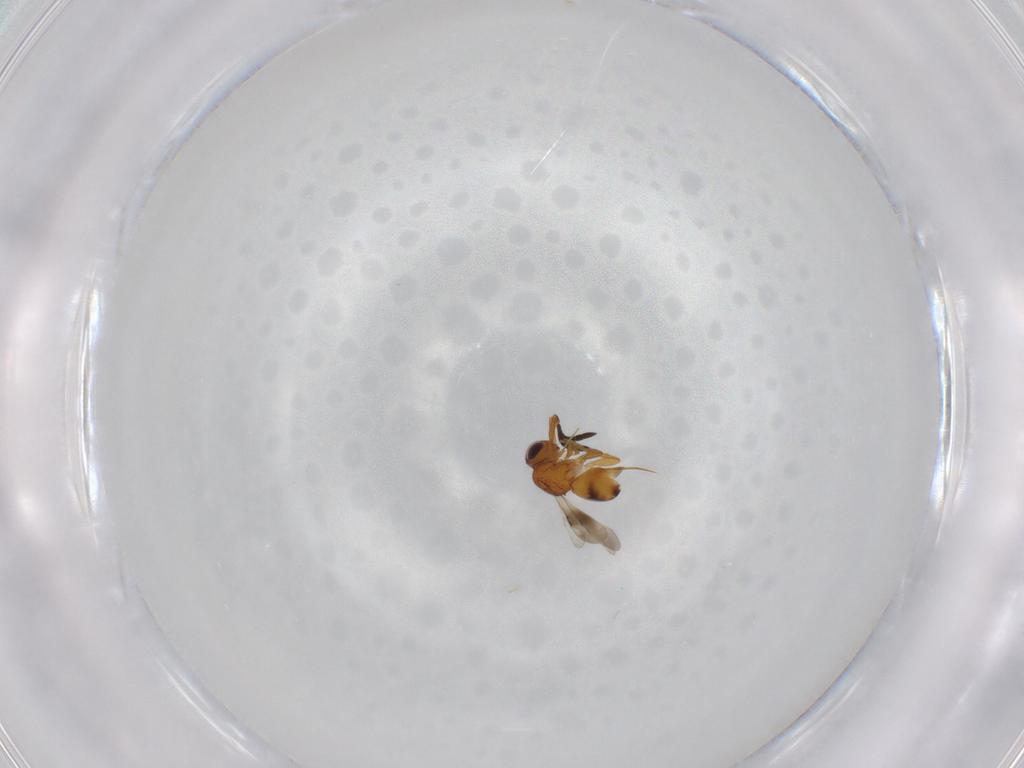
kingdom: Animalia
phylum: Arthropoda
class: Insecta
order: Hymenoptera
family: Ceraphronidae
